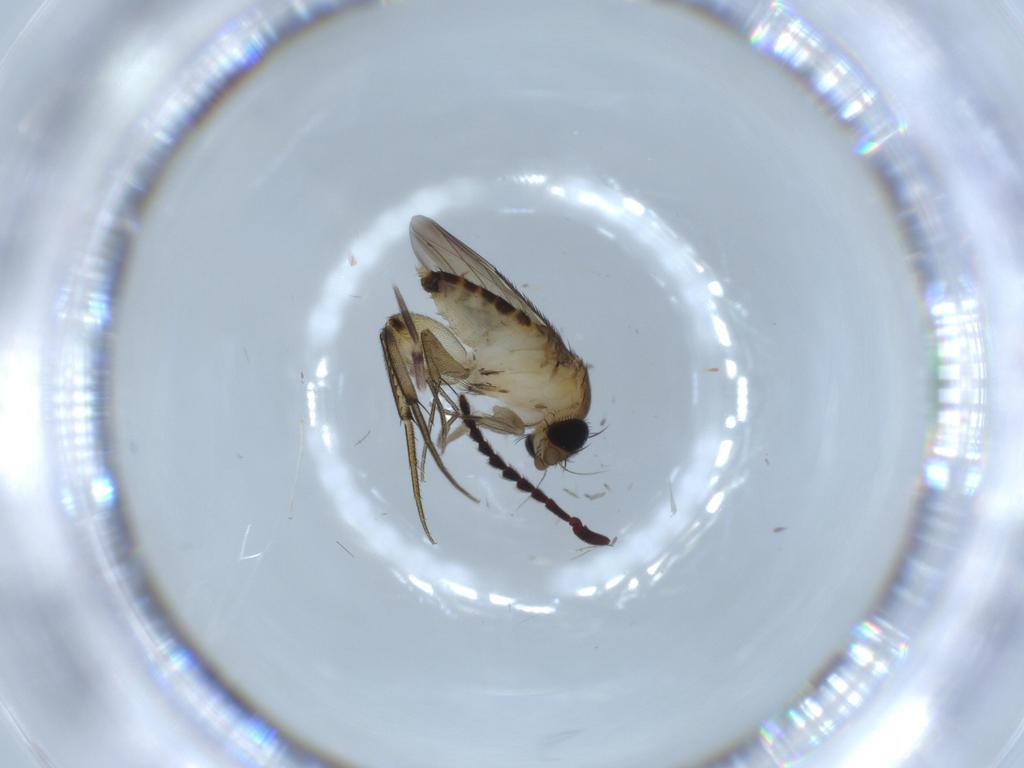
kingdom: Animalia
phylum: Arthropoda
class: Insecta
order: Diptera
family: Phoridae
